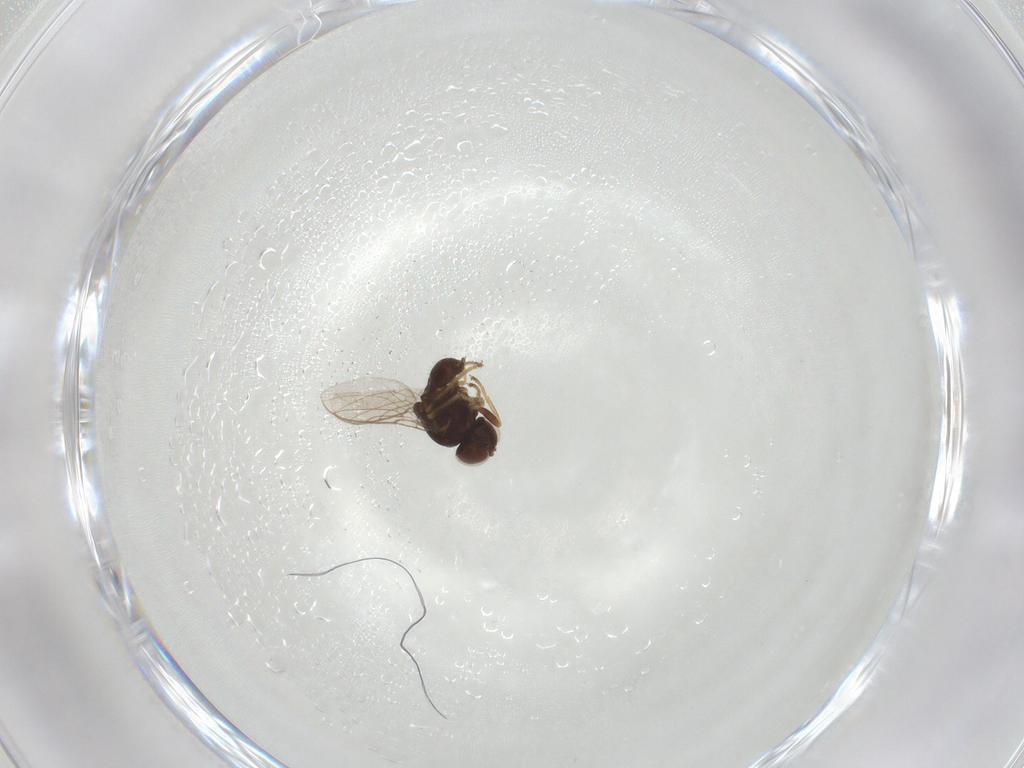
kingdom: Animalia
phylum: Arthropoda
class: Insecta
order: Diptera
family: Chloropidae
